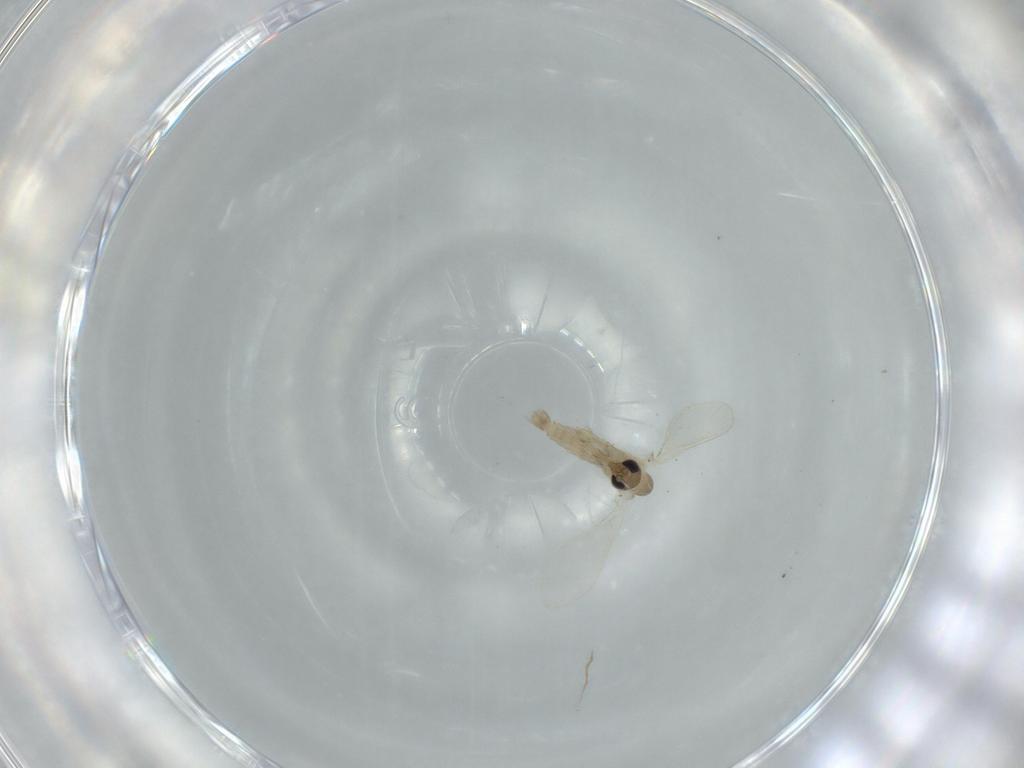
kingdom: Animalia
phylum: Arthropoda
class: Insecta
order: Diptera
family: Psychodidae
